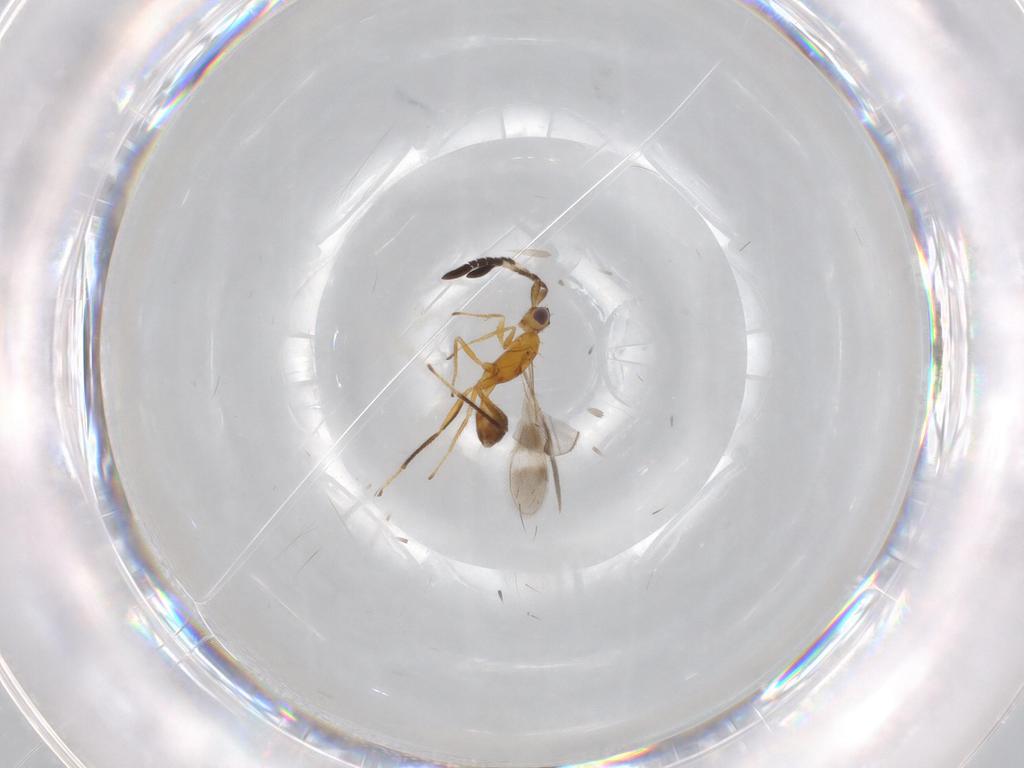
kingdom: Animalia
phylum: Arthropoda
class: Insecta
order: Hymenoptera
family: Mymaridae
